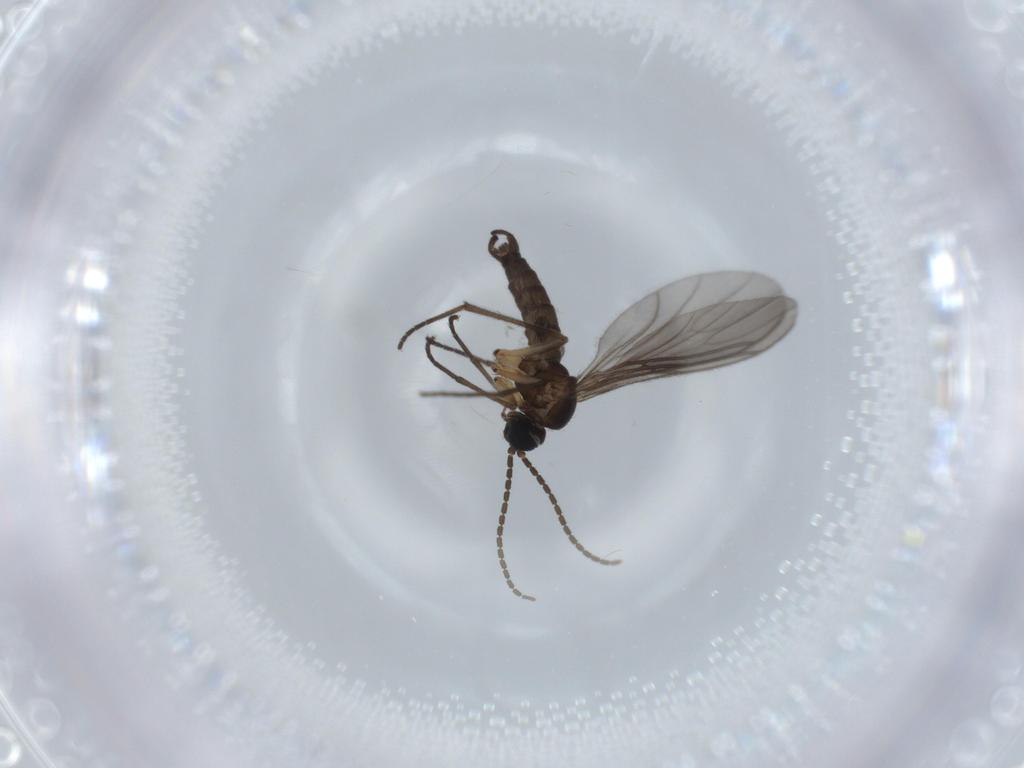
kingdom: Animalia
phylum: Arthropoda
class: Insecta
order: Diptera
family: Sciaridae
